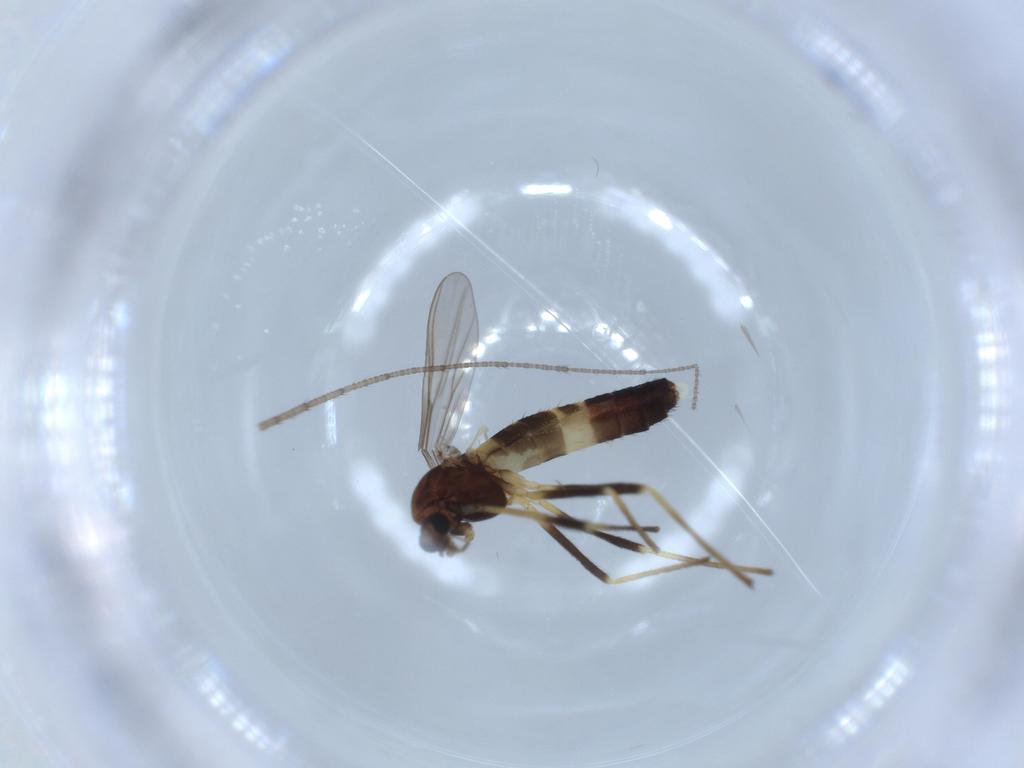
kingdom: Animalia
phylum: Arthropoda
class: Insecta
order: Diptera
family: Chironomidae
